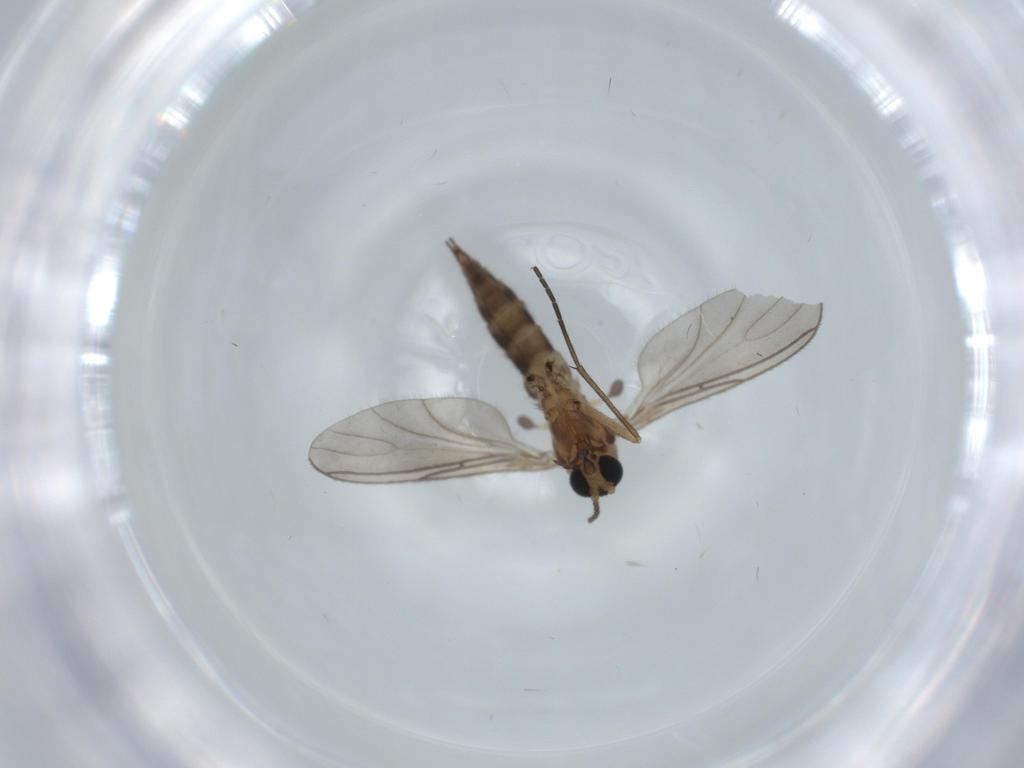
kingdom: Animalia
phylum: Arthropoda
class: Insecta
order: Diptera
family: Sciaridae
